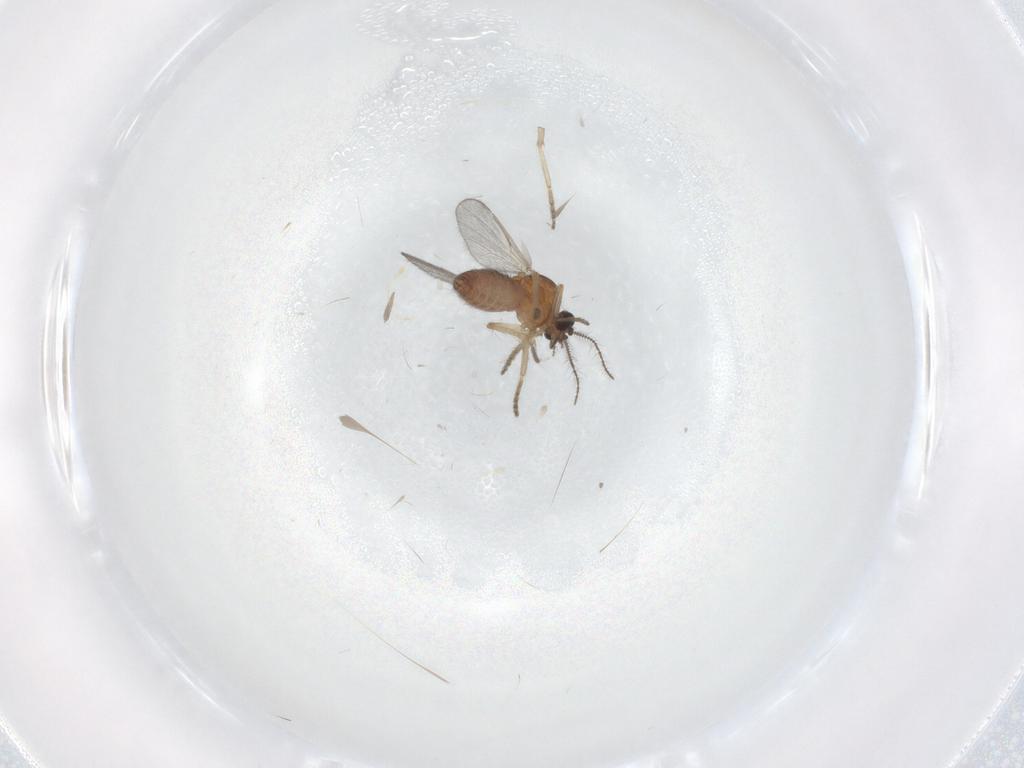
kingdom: Animalia
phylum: Arthropoda
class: Insecta
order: Diptera
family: Ceratopogonidae
